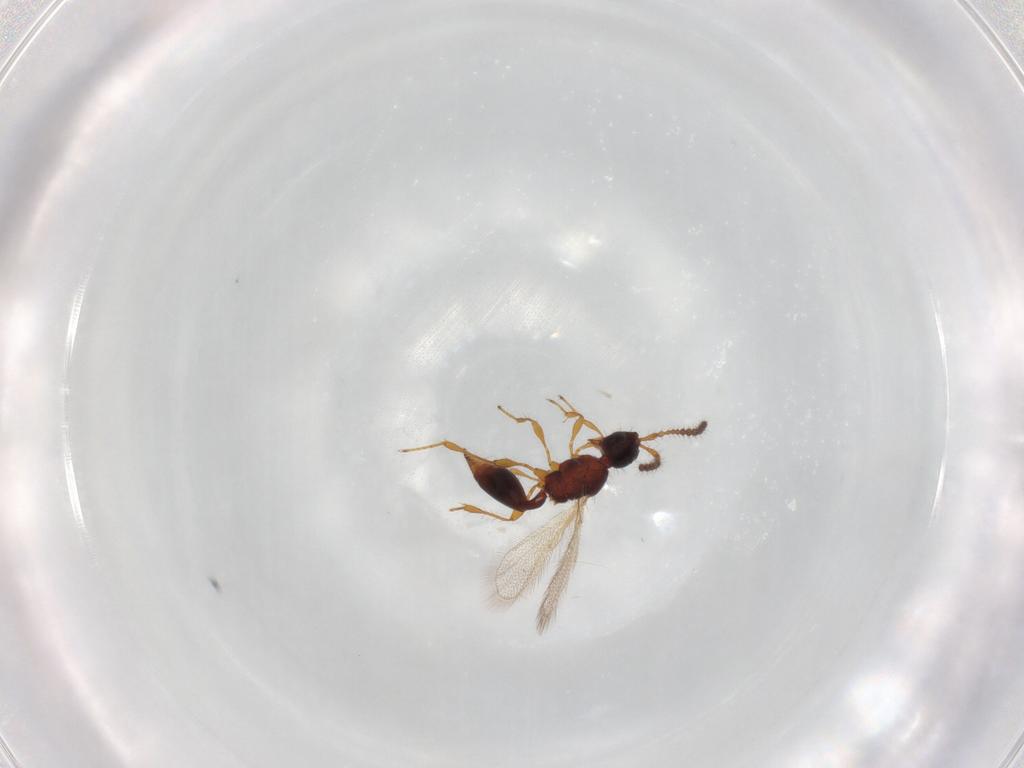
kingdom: Animalia
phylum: Arthropoda
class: Insecta
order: Hymenoptera
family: Diapriidae
